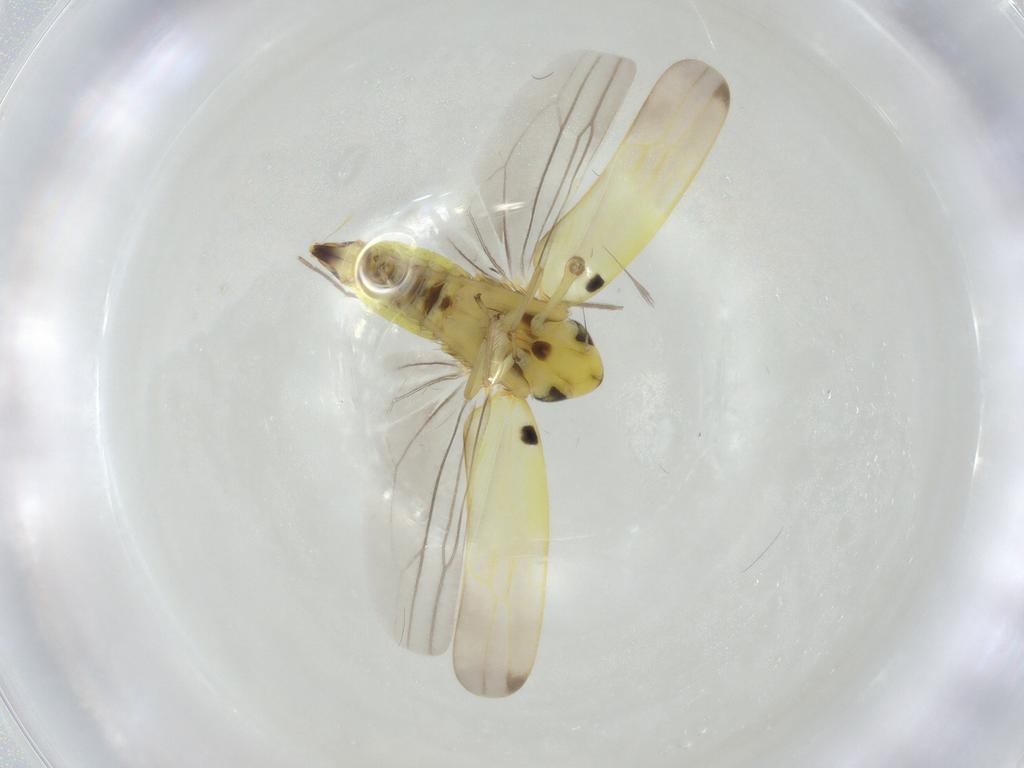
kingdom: Animalia
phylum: Arthropoda
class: Insecta
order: Hemiptera
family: Cicadellidae
